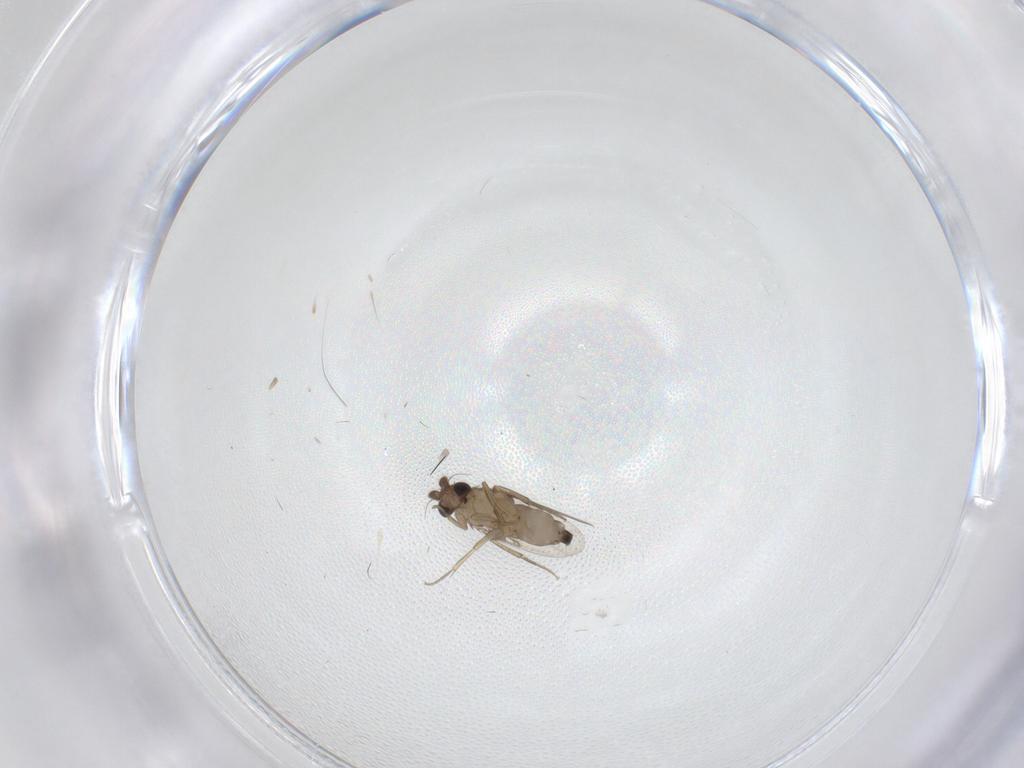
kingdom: Animalia
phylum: Arthropoda
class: Insecta
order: Diptera
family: Phoridae
